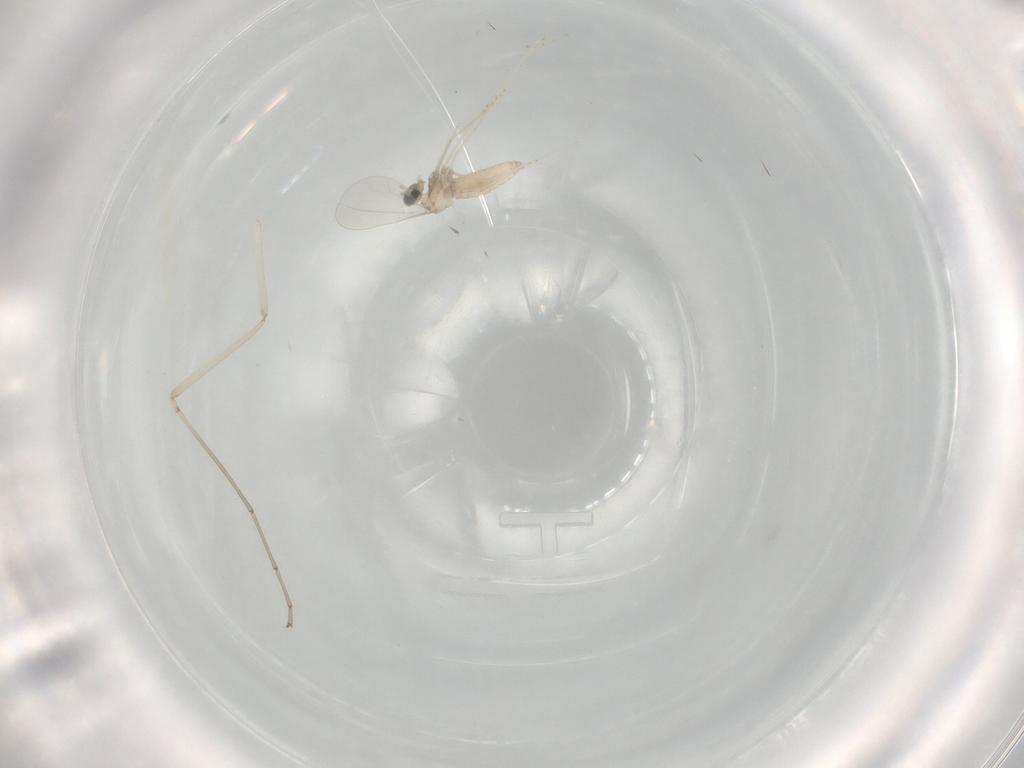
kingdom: Animalia
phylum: Arthropoda
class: Insecta
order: Diptera
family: Cecidomyiidae
